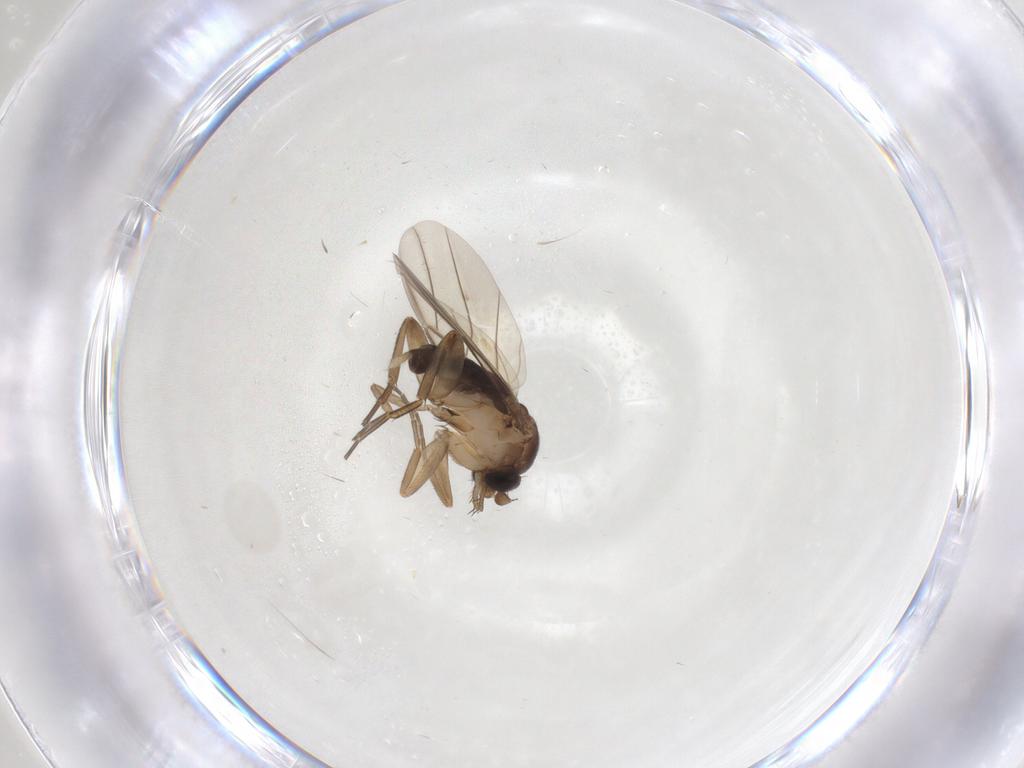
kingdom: Animalia
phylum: Arthropoda
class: Insecta
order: Diptera
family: Phoridae
